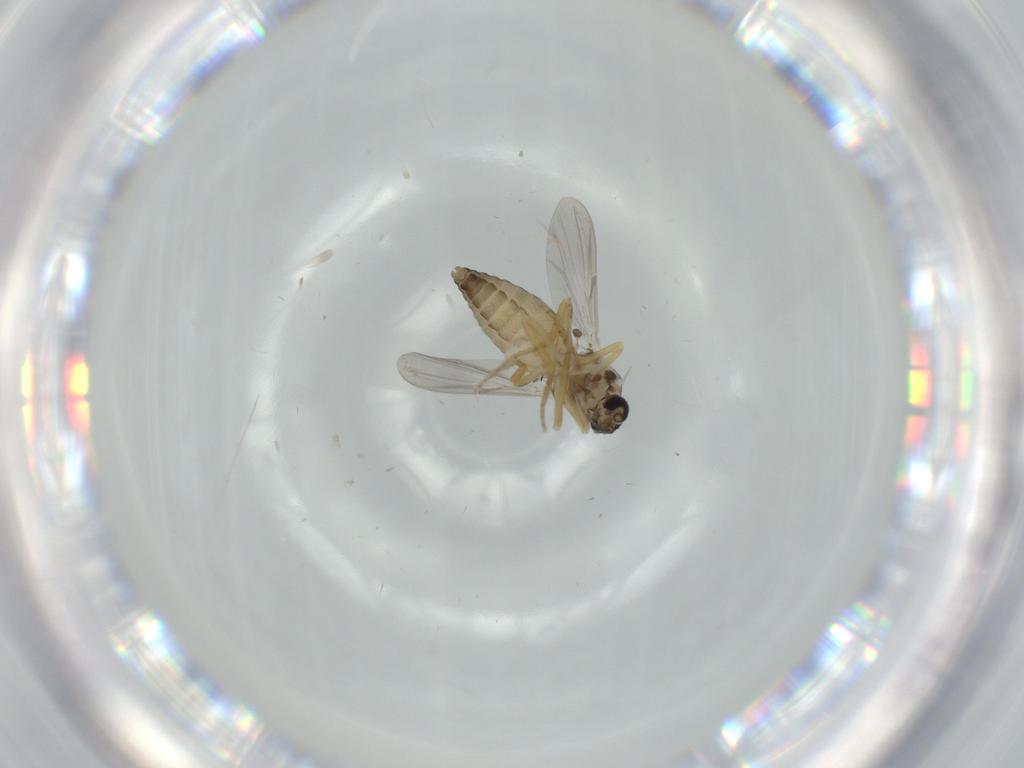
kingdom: Animalia
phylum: Arthropoda
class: Insecta
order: Diptera
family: Ceratopogonidae
